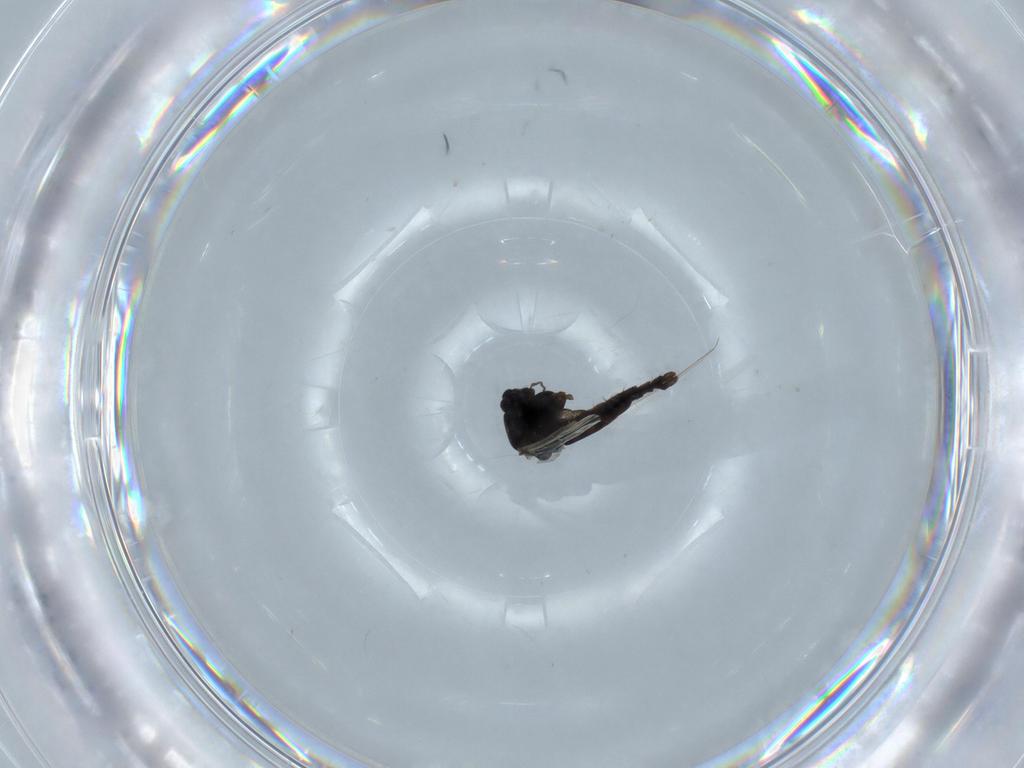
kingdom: Animalia
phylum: Arthropoda
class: Insecta
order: Diptera
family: Chironomidae
